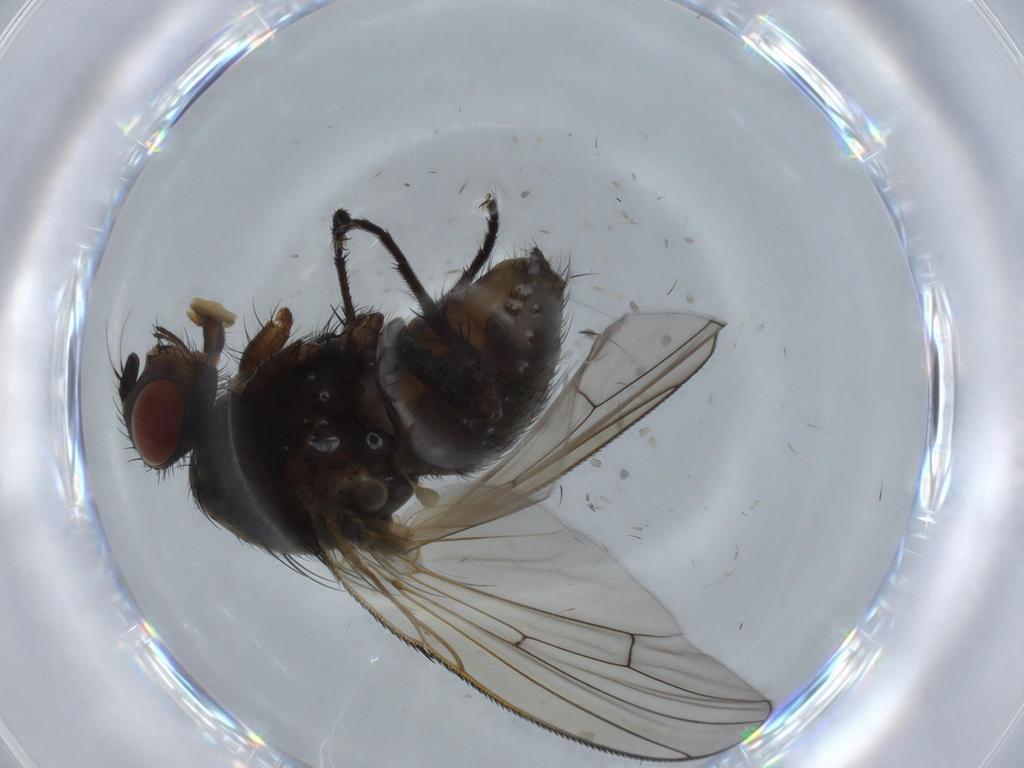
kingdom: Animalia
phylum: Arthropoda
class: Insecta
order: Diptera
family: Anthomyiidae
